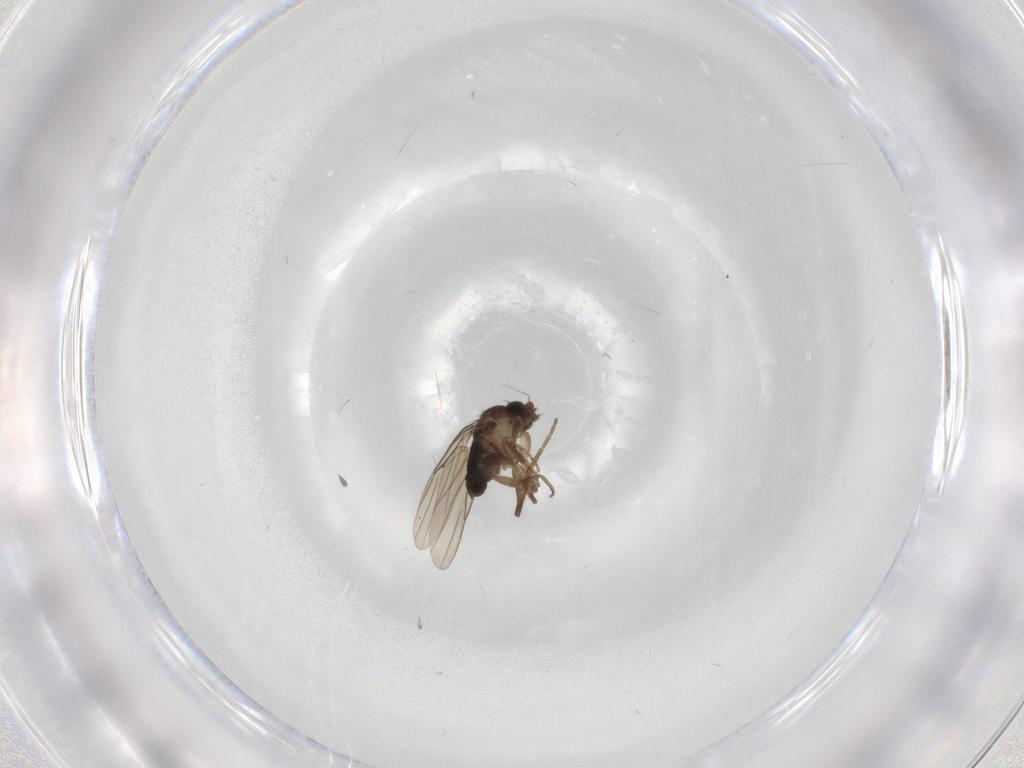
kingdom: Animalia
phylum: Arthropoda
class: Insecta
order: Diptera
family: Phoridae
